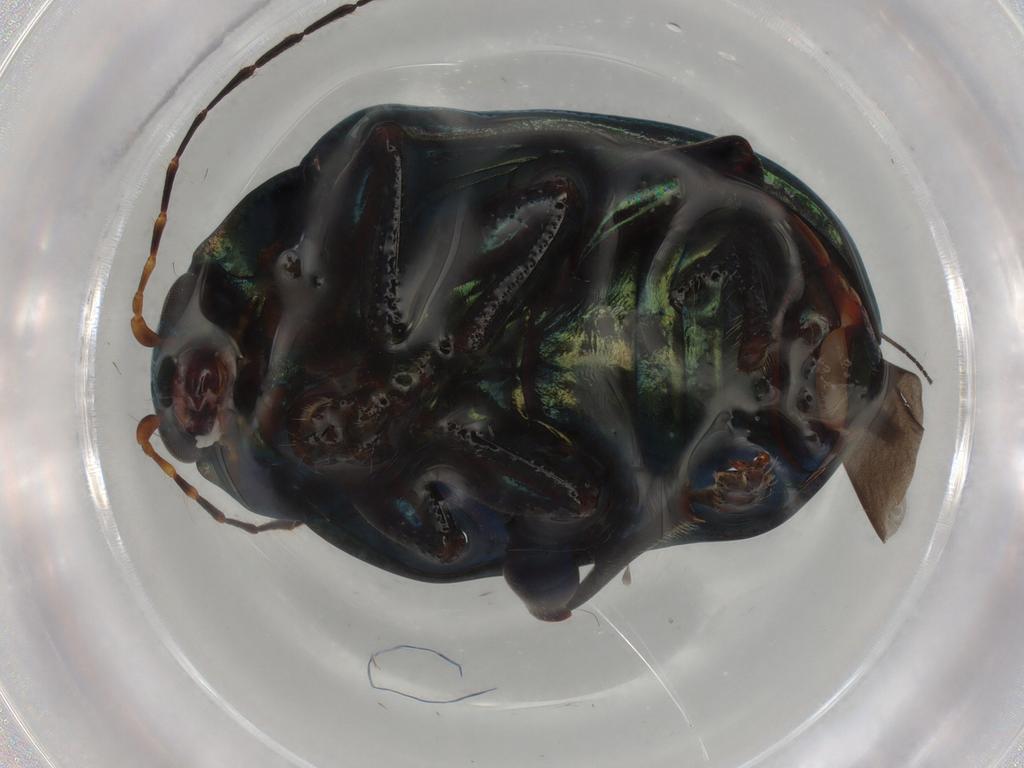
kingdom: Animalia
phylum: Arthropoda
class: Insecta
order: Coleoptera
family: Chrysomelidae
